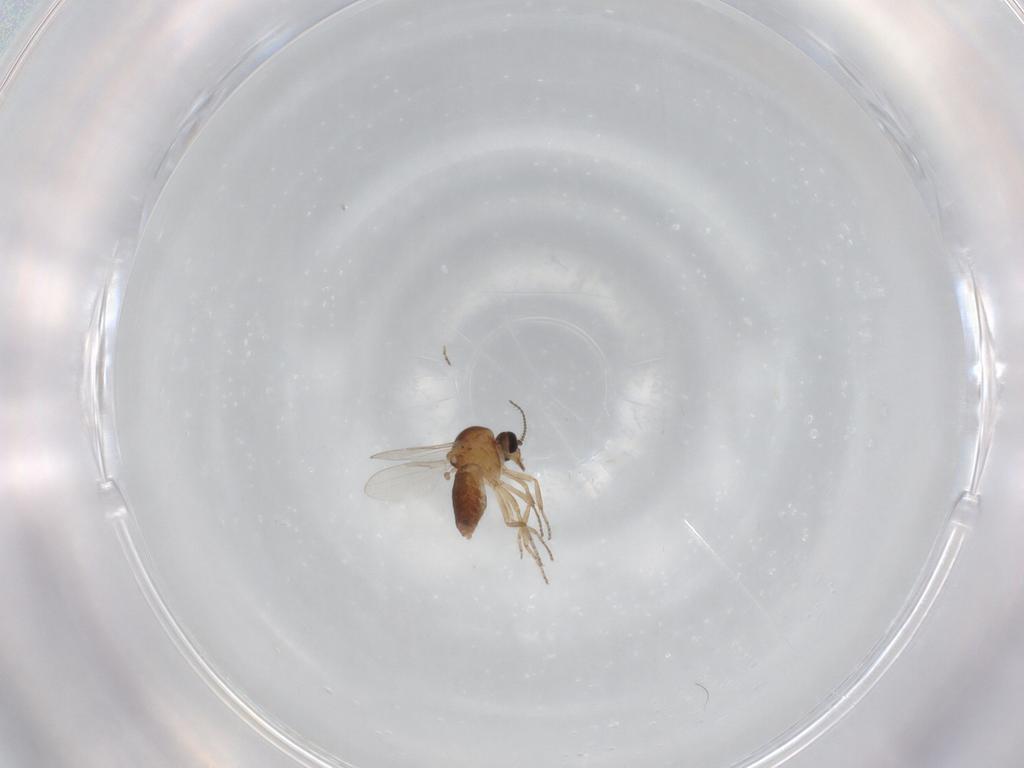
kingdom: Animalia
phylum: Arthropoda
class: Insecta
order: Diptera
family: Ceratopogonidae
